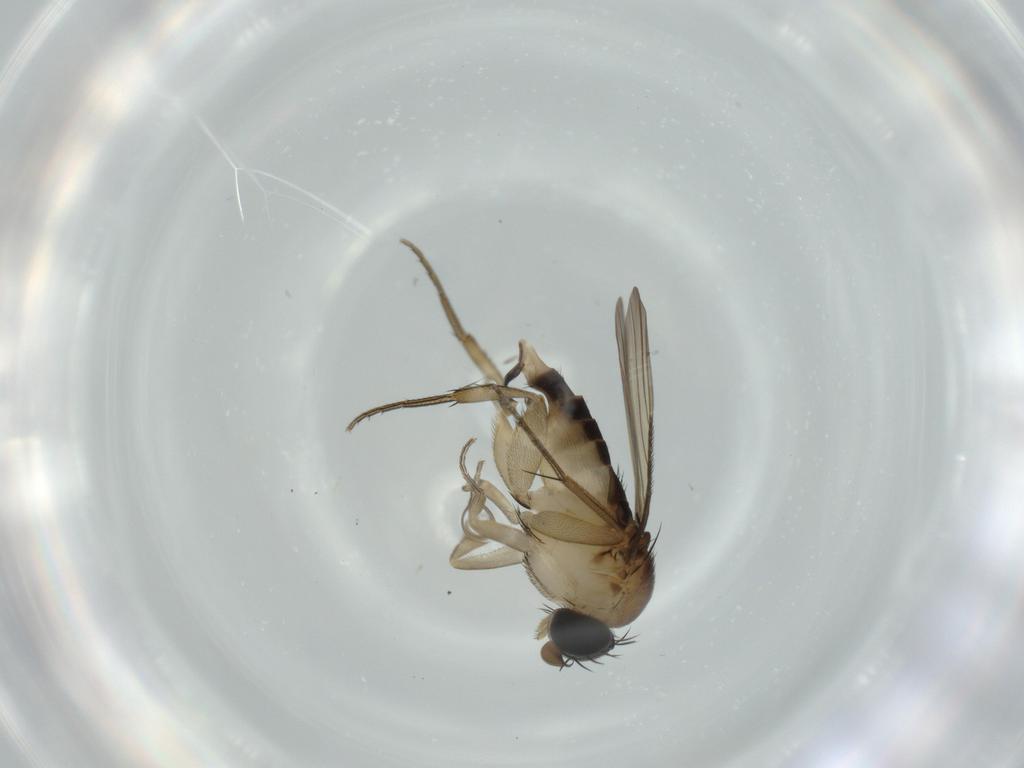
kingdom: Animalia
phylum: Arthropoda
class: Insecta
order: Diptera
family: Phoridae
